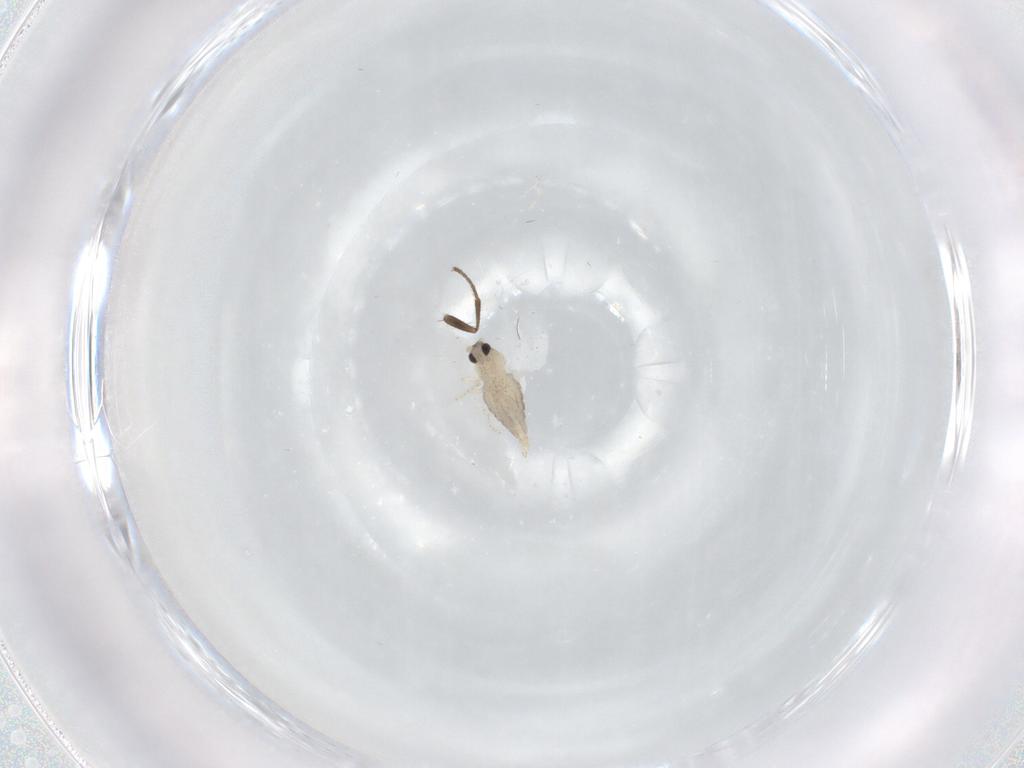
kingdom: Animalia
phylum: Arthropoda
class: Insecta
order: Diptera
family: Cecidomyiidae
